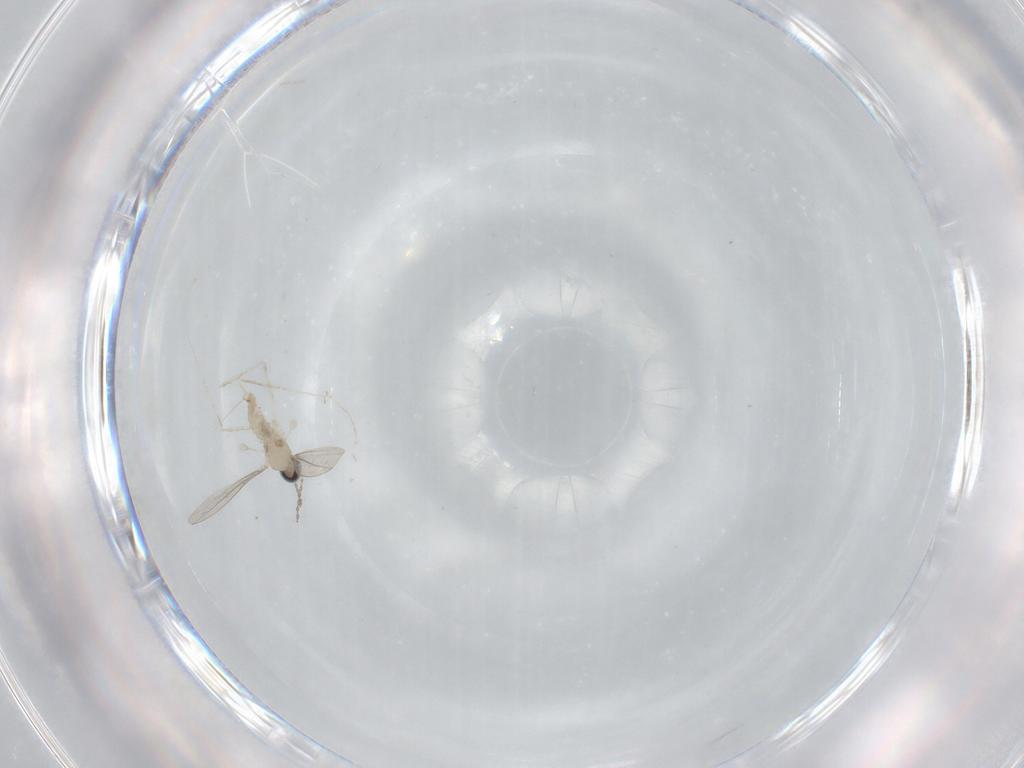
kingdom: Animalia
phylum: Arthropoda
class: Insecta
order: Diptera
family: Cecidomyiidae
